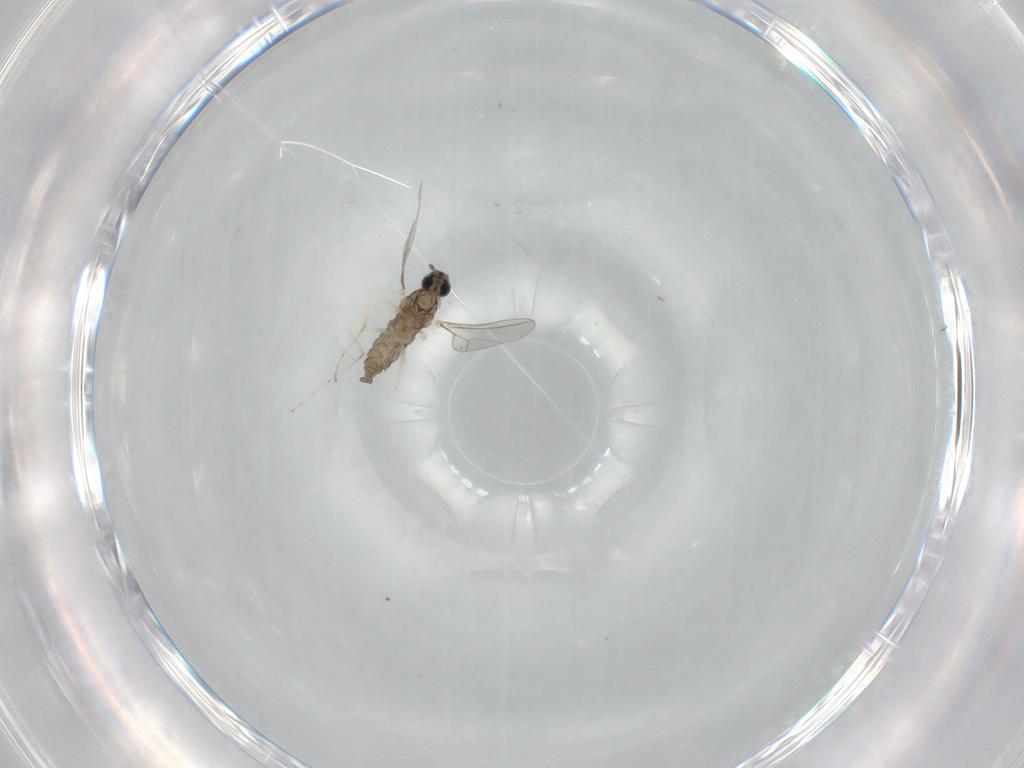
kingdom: Animalia
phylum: Arthropoda
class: Insecta
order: Diptera
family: Cecidomyiidae
